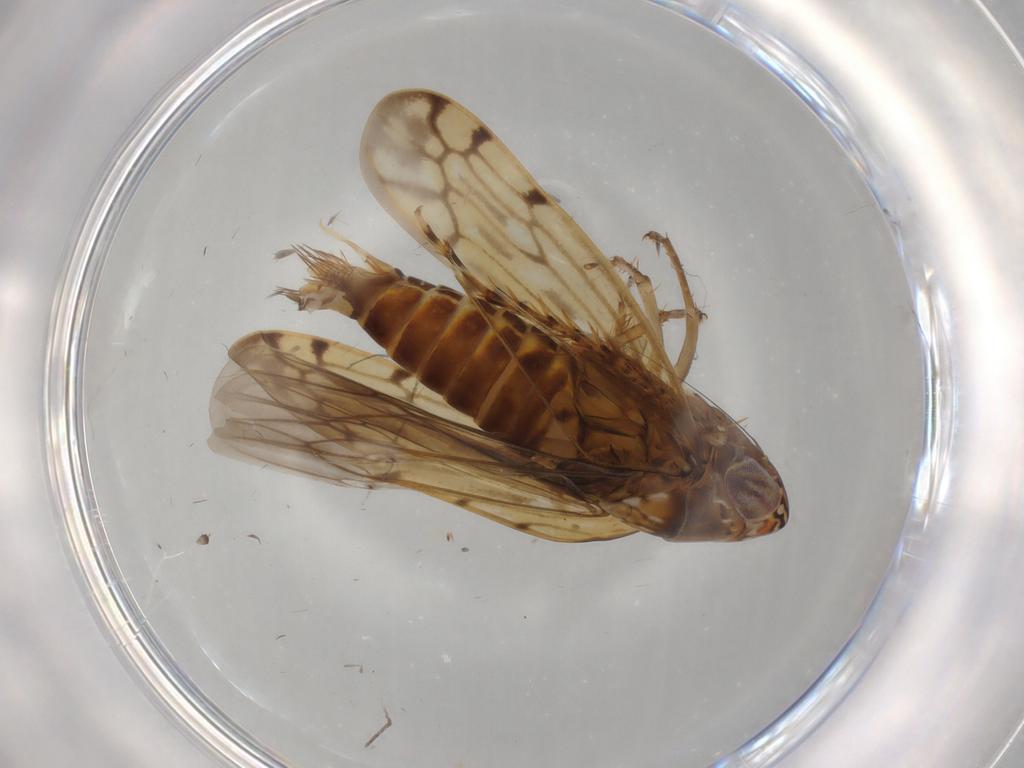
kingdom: Animalia
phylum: Arthropoda
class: Insecta
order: Hemiptera
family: Cicadellidae
